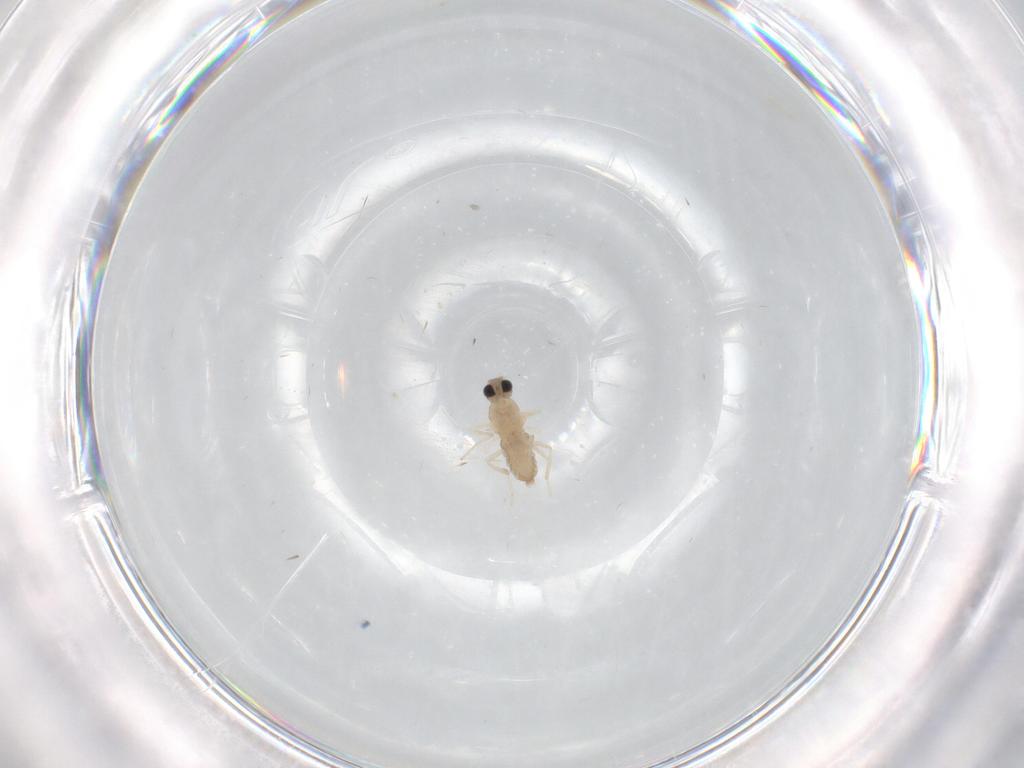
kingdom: Animalia
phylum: Arthropoda
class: Insecta
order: Diptera
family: Cecidomyiidae
